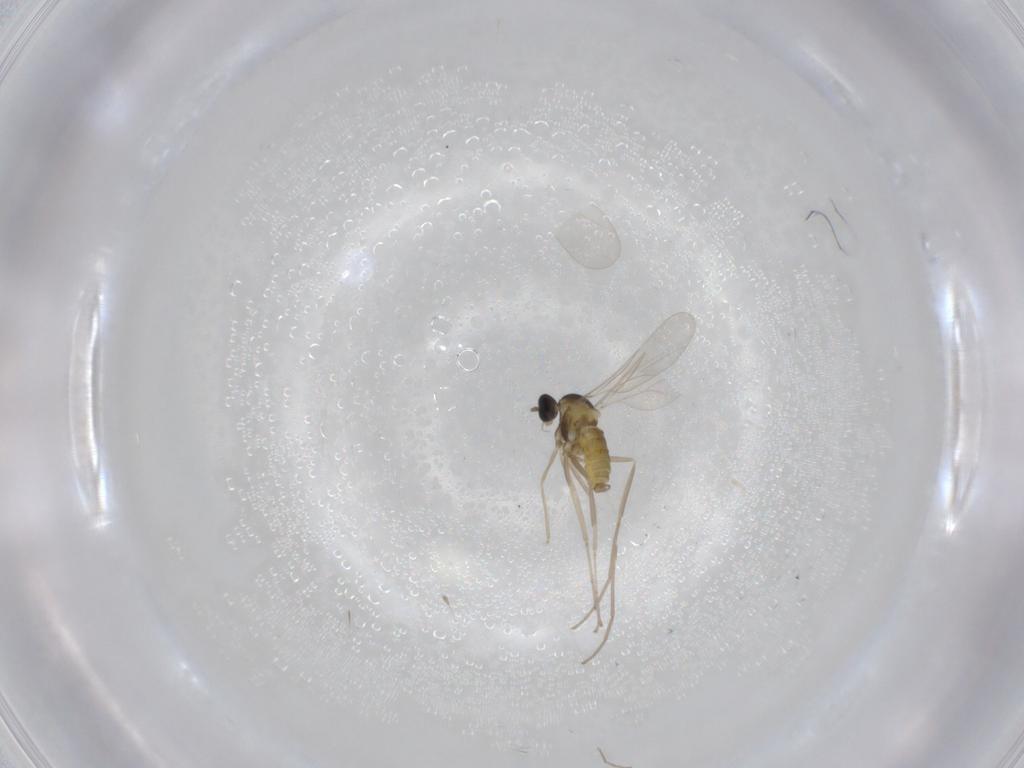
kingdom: Animalia
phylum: Arthropoda
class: Insecta
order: Diptera
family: Cecidomyiidae
